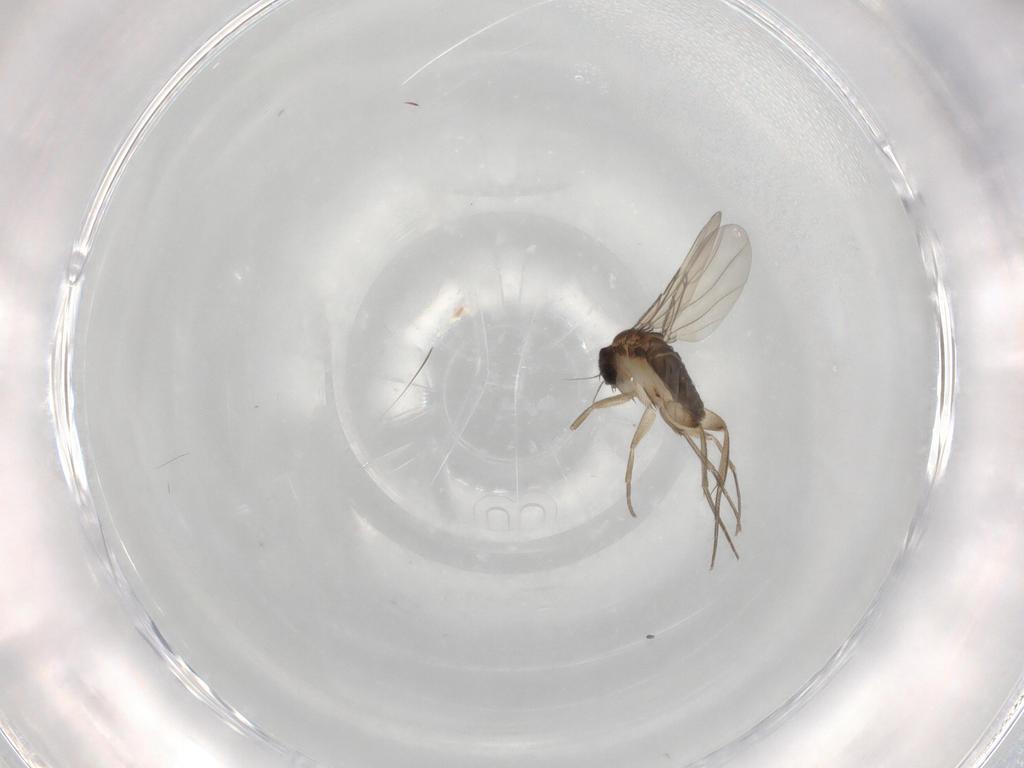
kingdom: Animalia
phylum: Arthropoda
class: Insecta
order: Diptera
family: Phoridae
